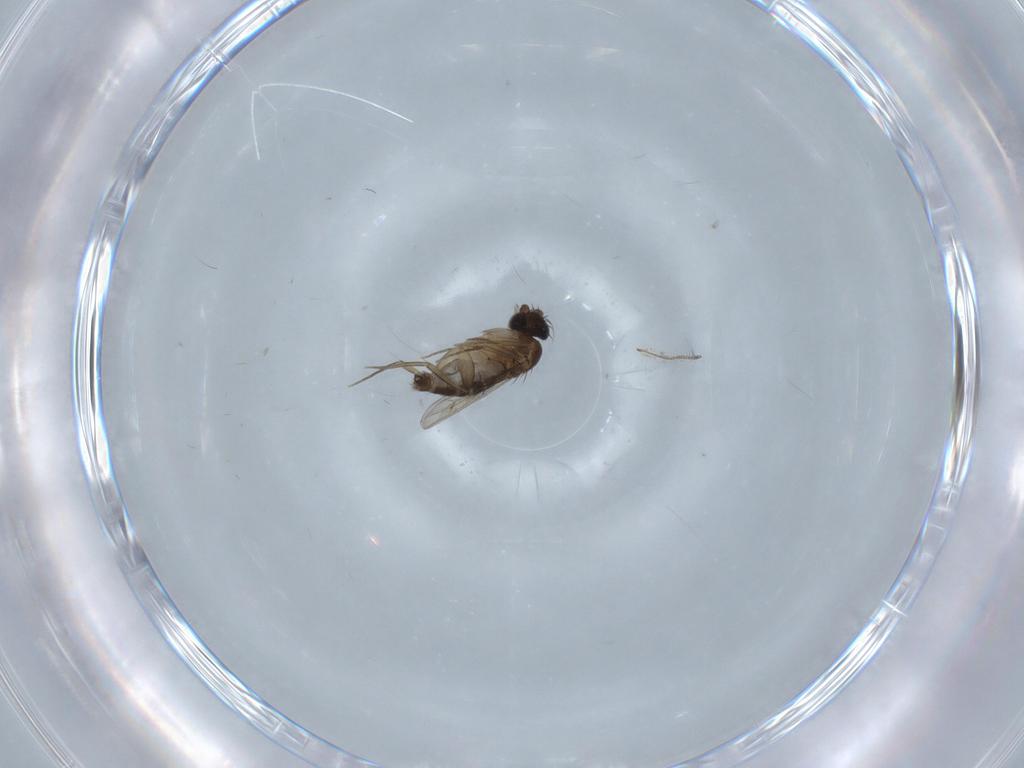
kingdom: Animalia
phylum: Arthropoda
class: Insecta
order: Diptera
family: Phoridae
